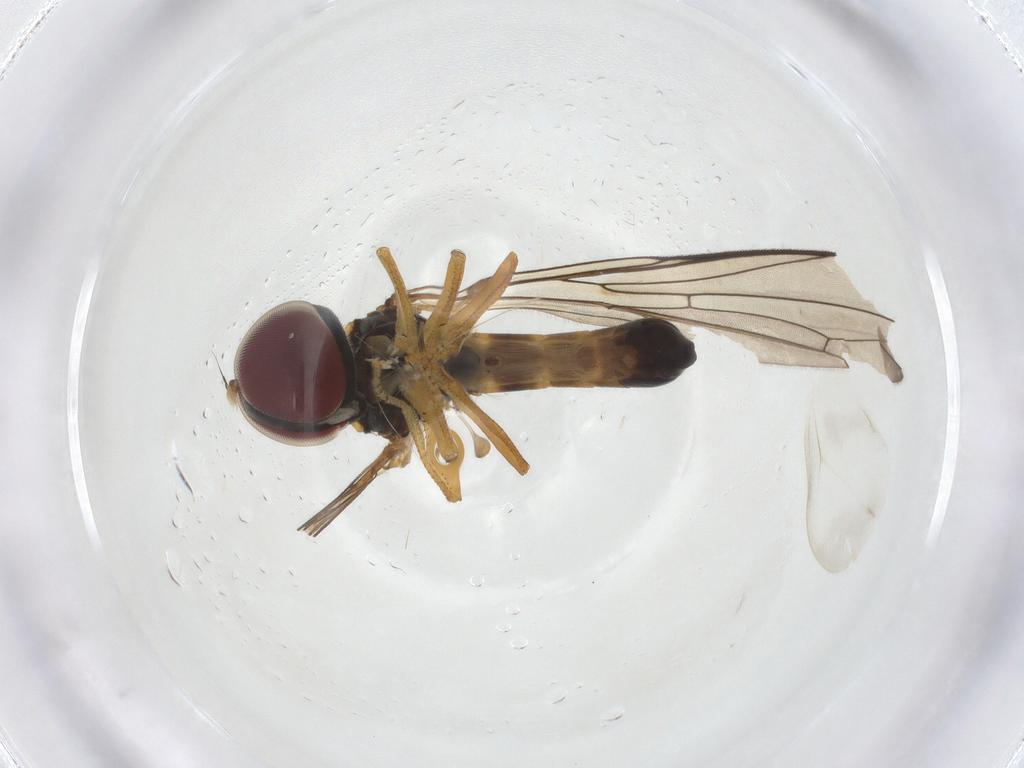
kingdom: Animalia
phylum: Arthropoda
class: Insecta
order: Diptera
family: Pipunculidae
